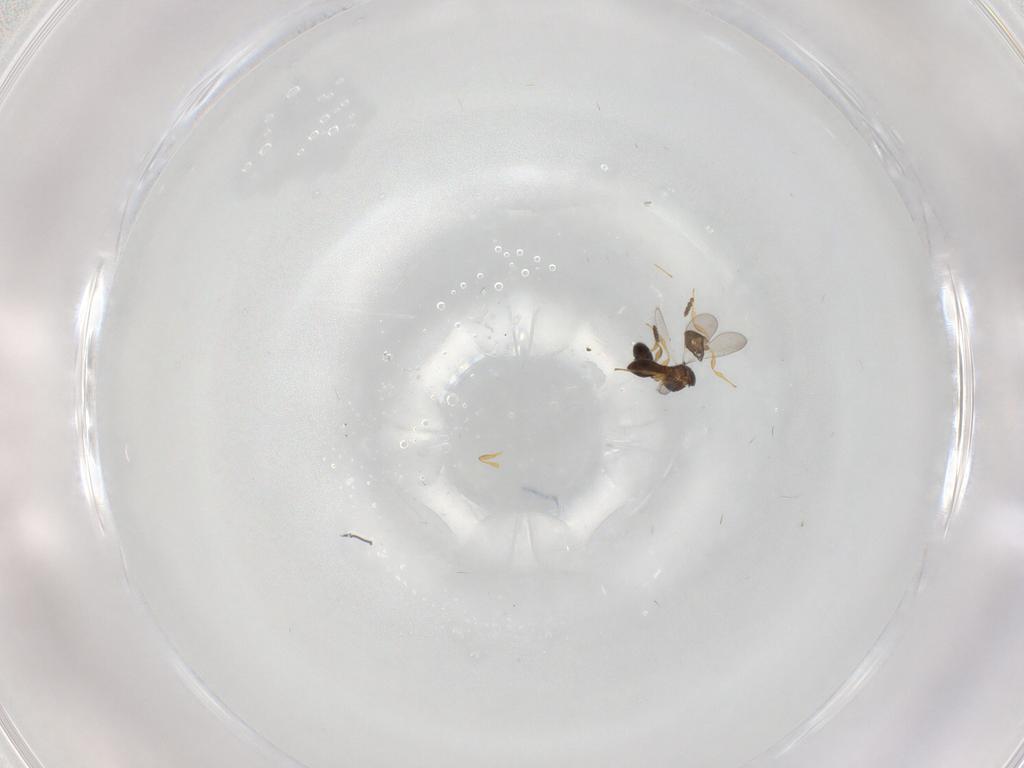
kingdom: Animalia
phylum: Arthropoda
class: Insecta
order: Hymenoptera
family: Platygastridae
